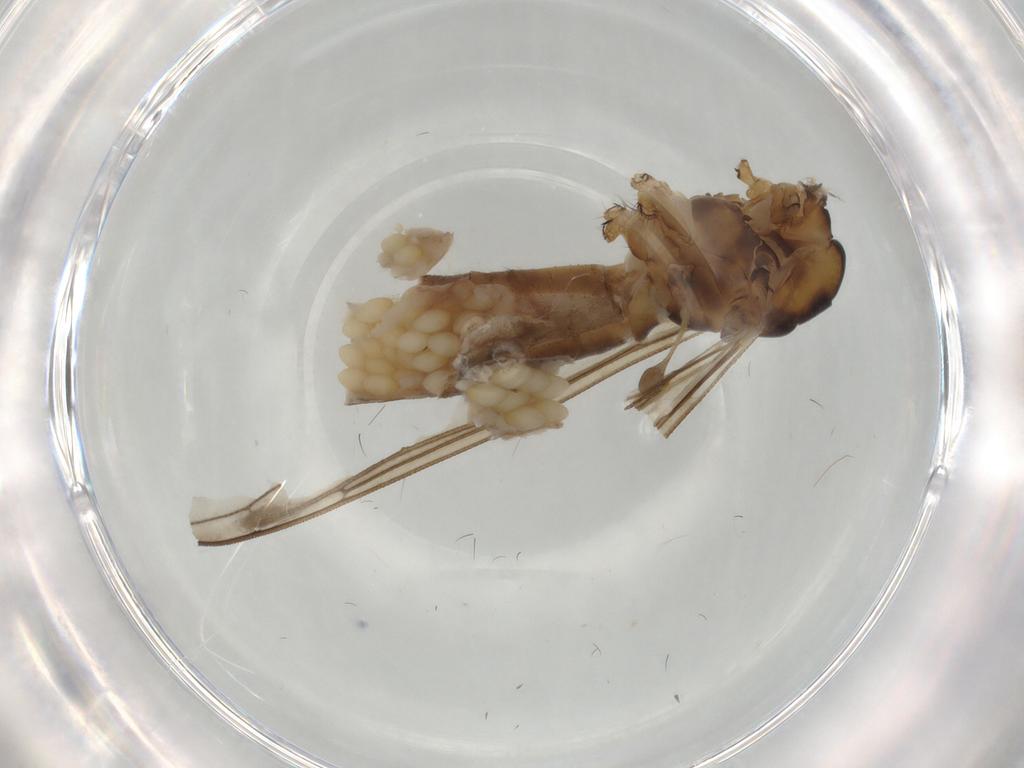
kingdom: Animalia
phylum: Arthropoda
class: Insecta
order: Diptera
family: Limoniidae
